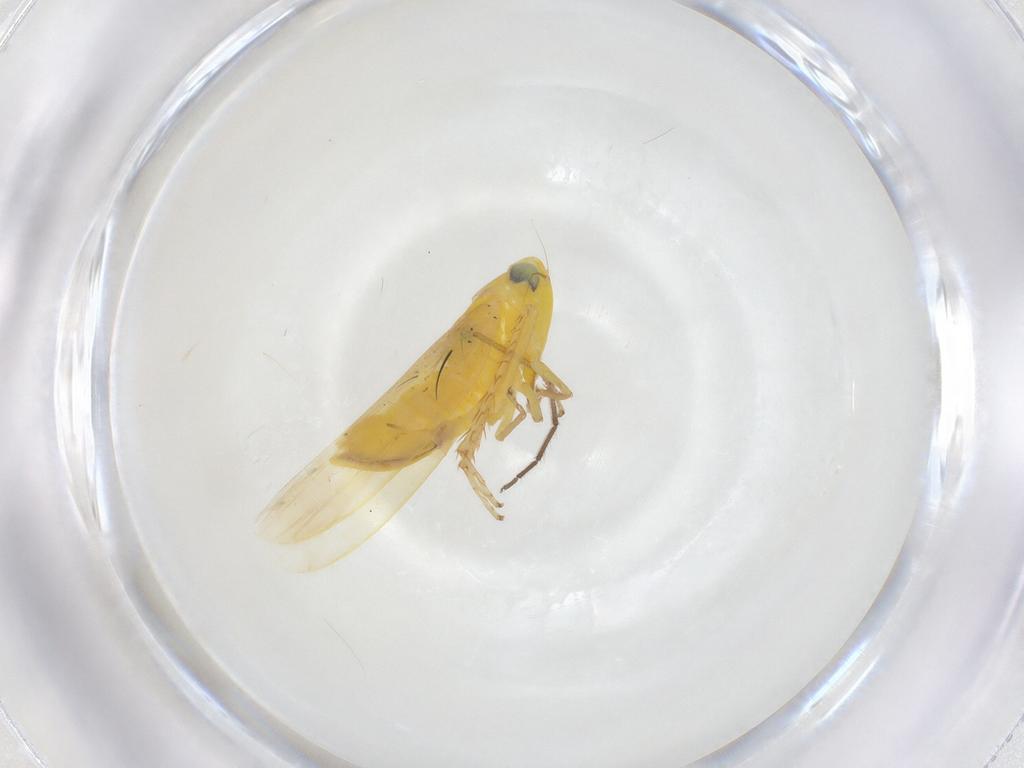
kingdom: Animalia
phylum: Arthropoda
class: Insecta
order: Hemiptera
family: Cicadellidae
